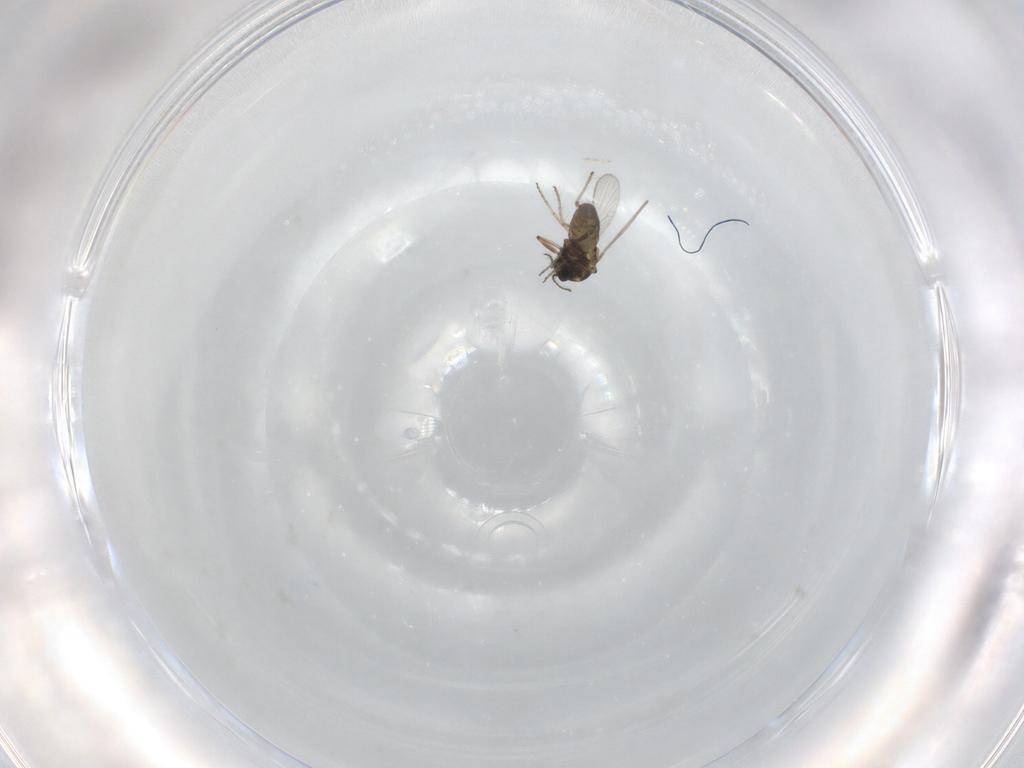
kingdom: Animalia
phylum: Arthropoda
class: Insecta
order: Diptera
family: Ceratopogonidae
